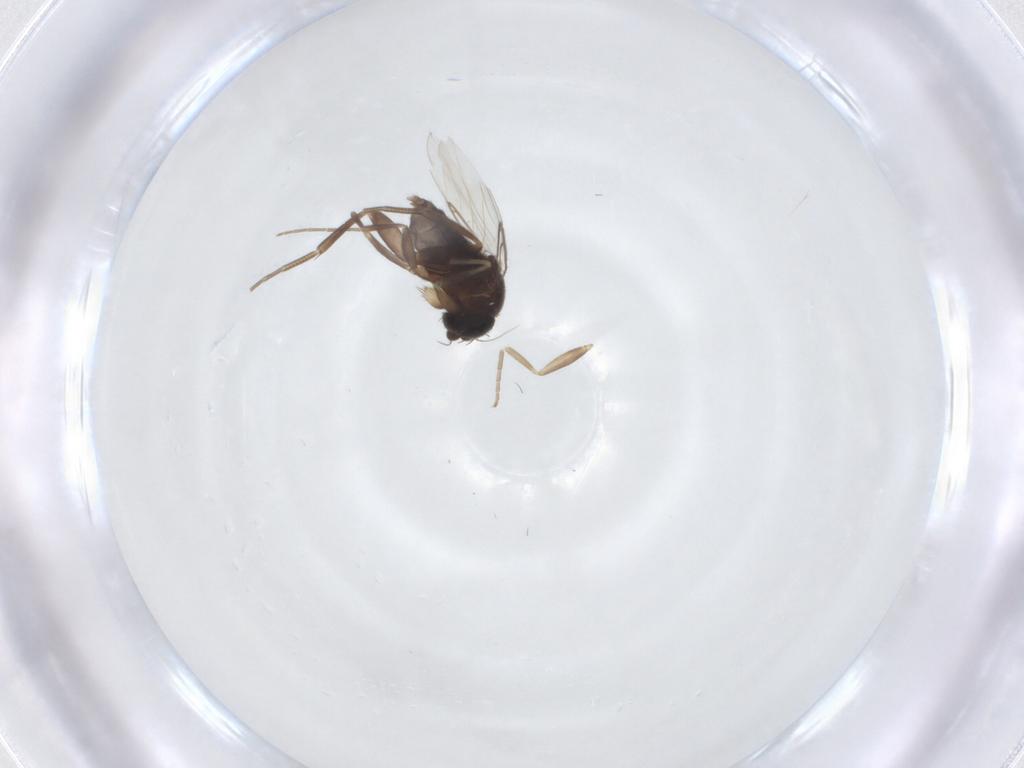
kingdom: Animalia
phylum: Arthropoda
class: Insecta
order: Diptera
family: Phoridae
